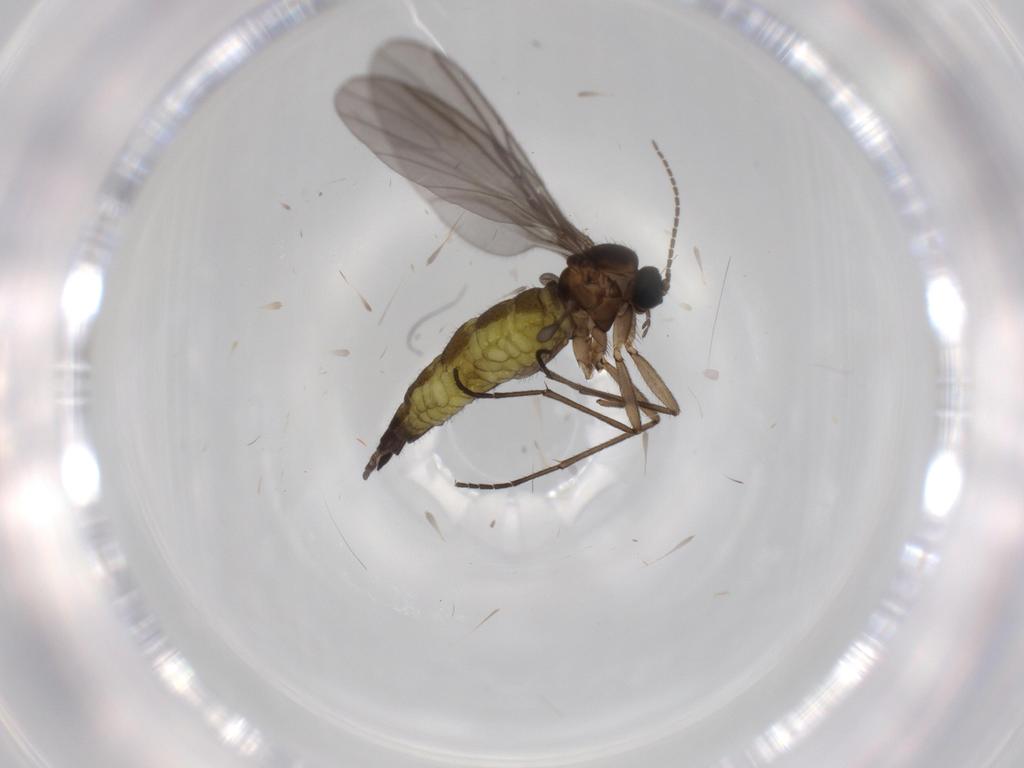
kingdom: Animalia
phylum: Arthropoda
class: Insecta
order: Diptera
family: Sciaridae
